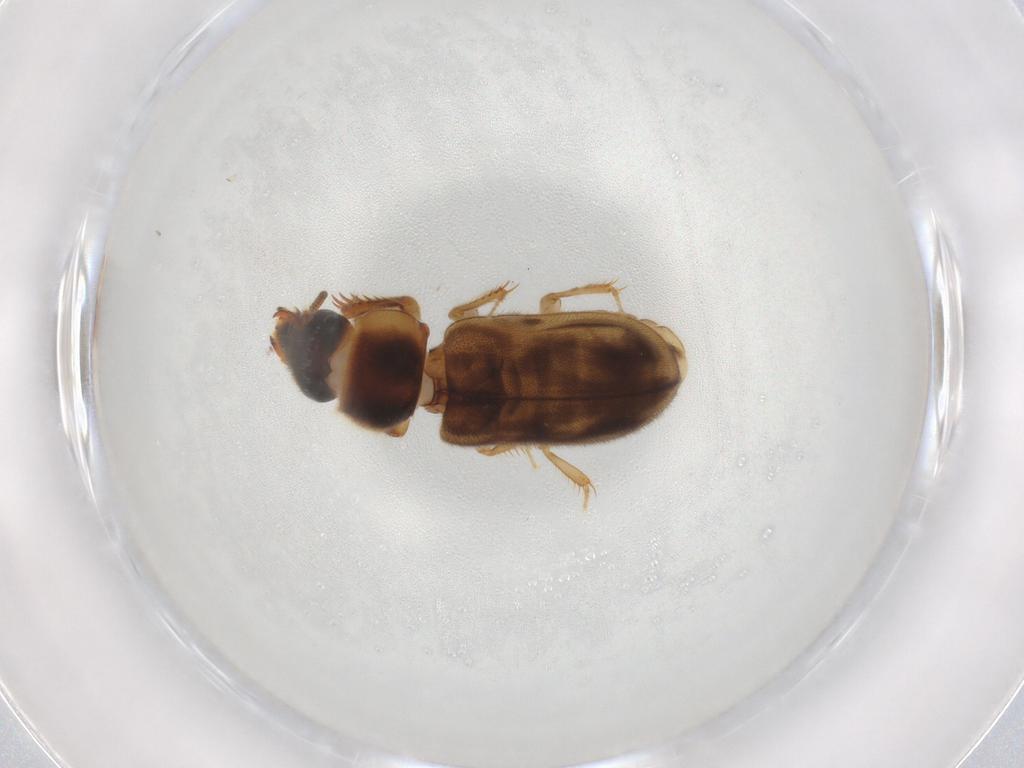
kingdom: Animalia
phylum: Arthropoda
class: Insecta
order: Coleoptera
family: Heteroceridae
